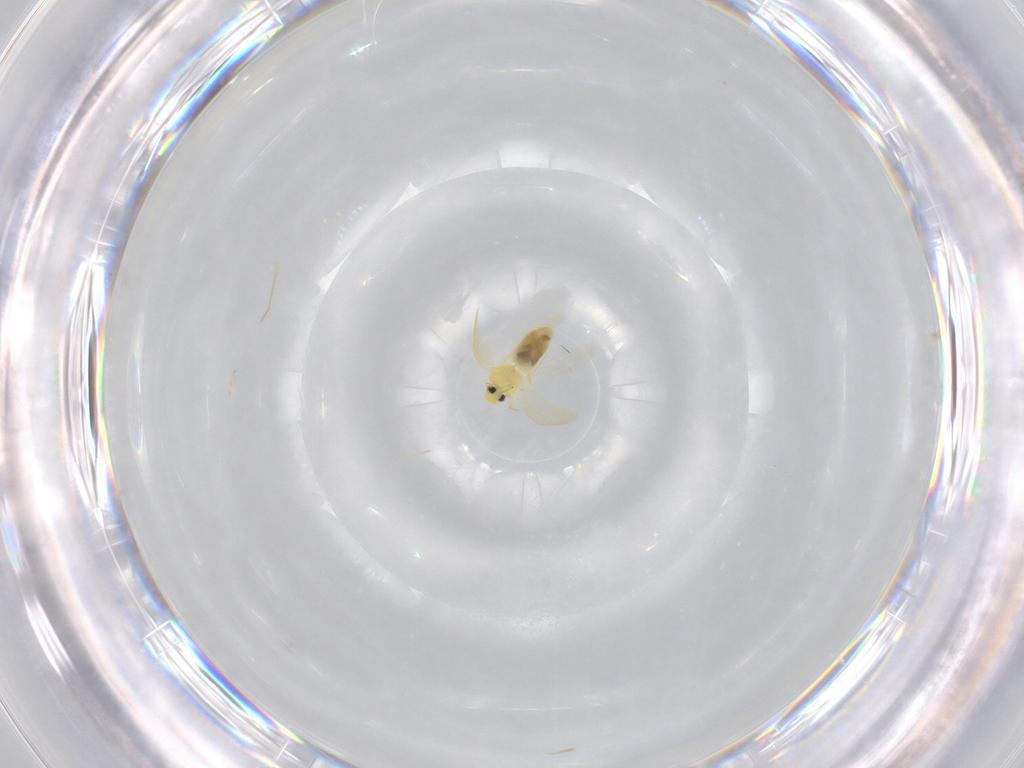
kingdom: Animalia
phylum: Arthropoda
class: Insecta
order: Hemiptera
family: Aleyrodidae
